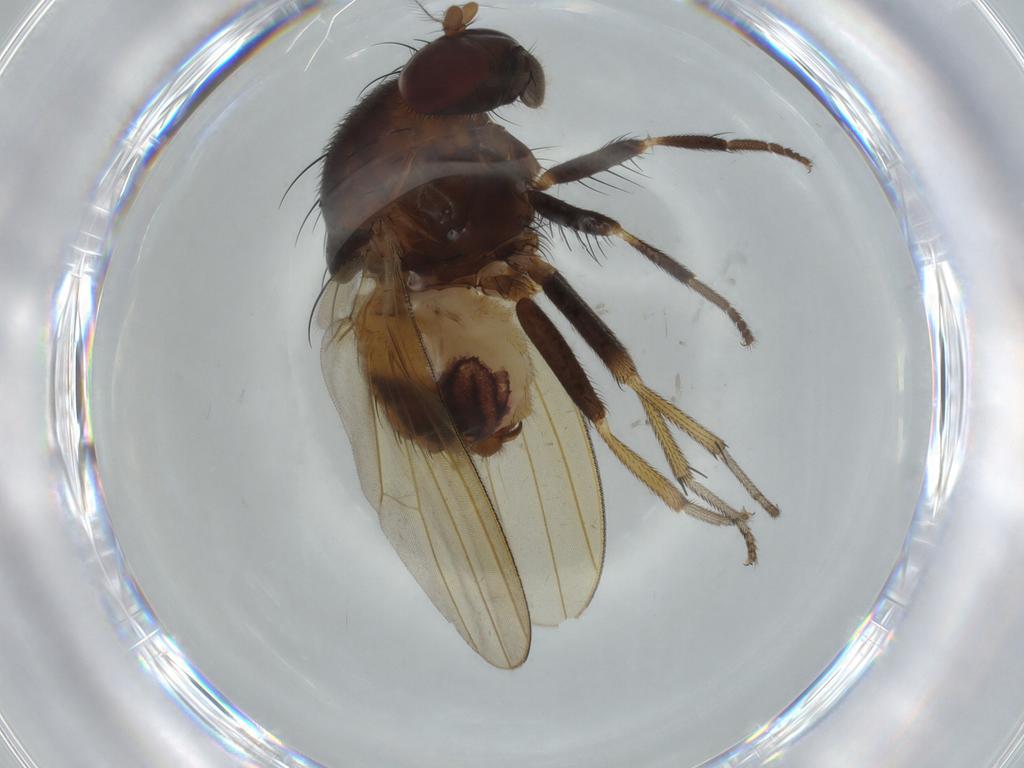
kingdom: Animalia
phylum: Arthropoda
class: Insecta
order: Diptera
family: Lauxaniidae
